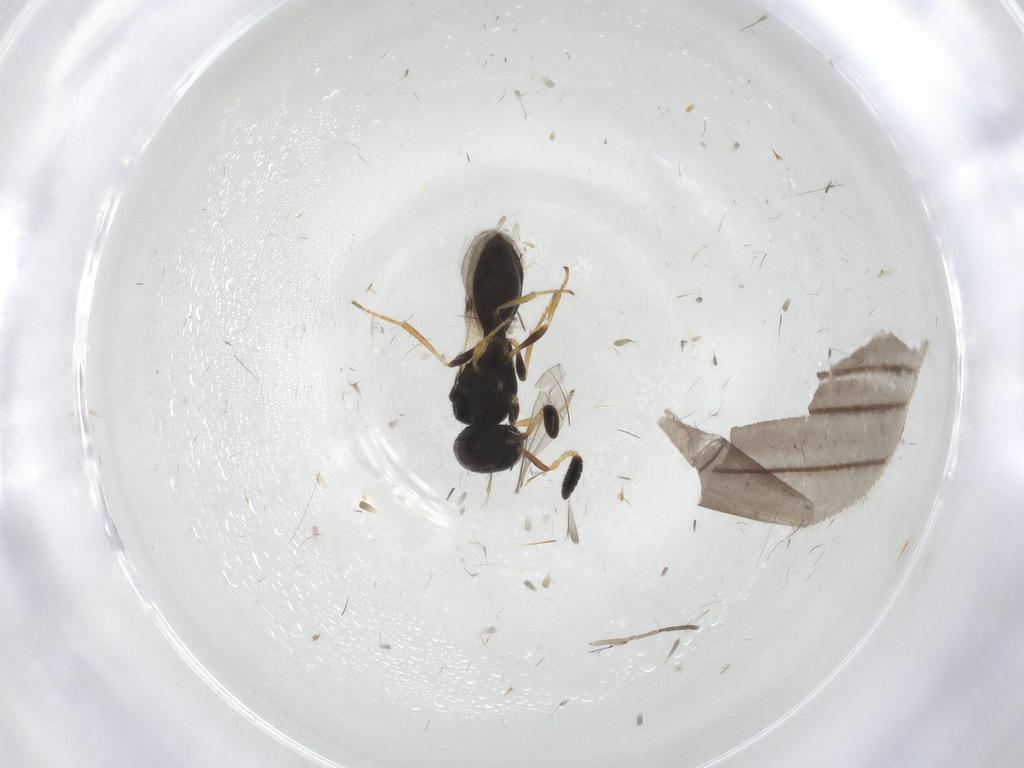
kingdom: Animalia
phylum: Arthropoda
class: Insecta
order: Hymenoptera
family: Scelionidae
